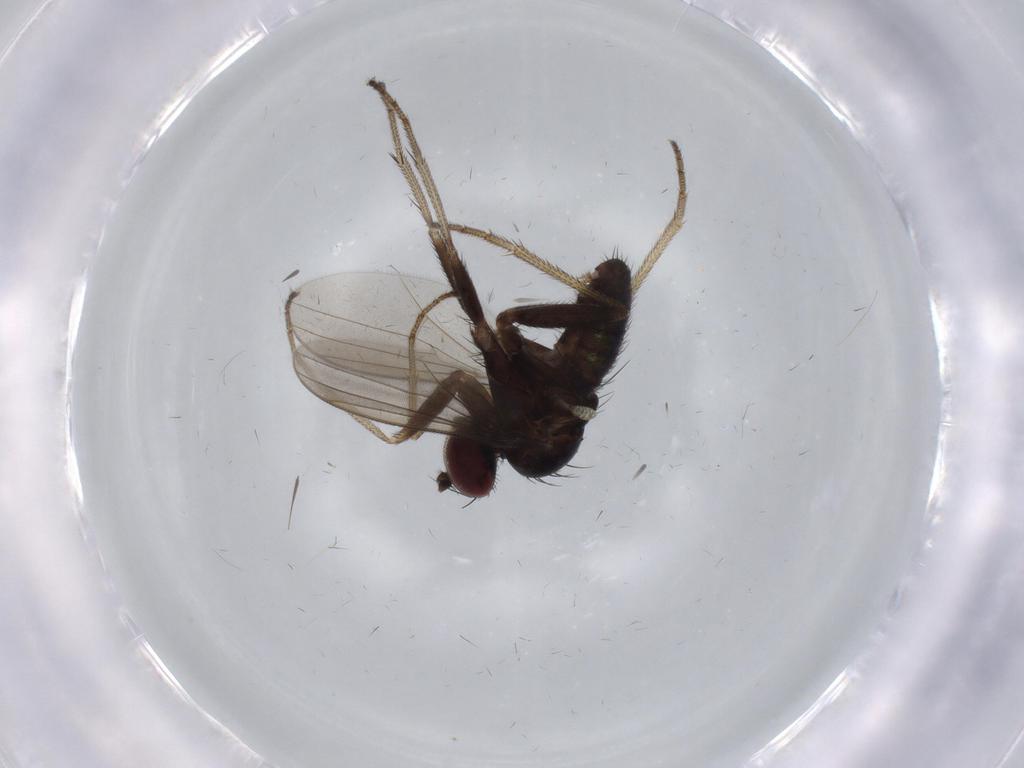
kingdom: Animalia
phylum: Arthropoda
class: Insecta
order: Diptera
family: Dolichopodidae
